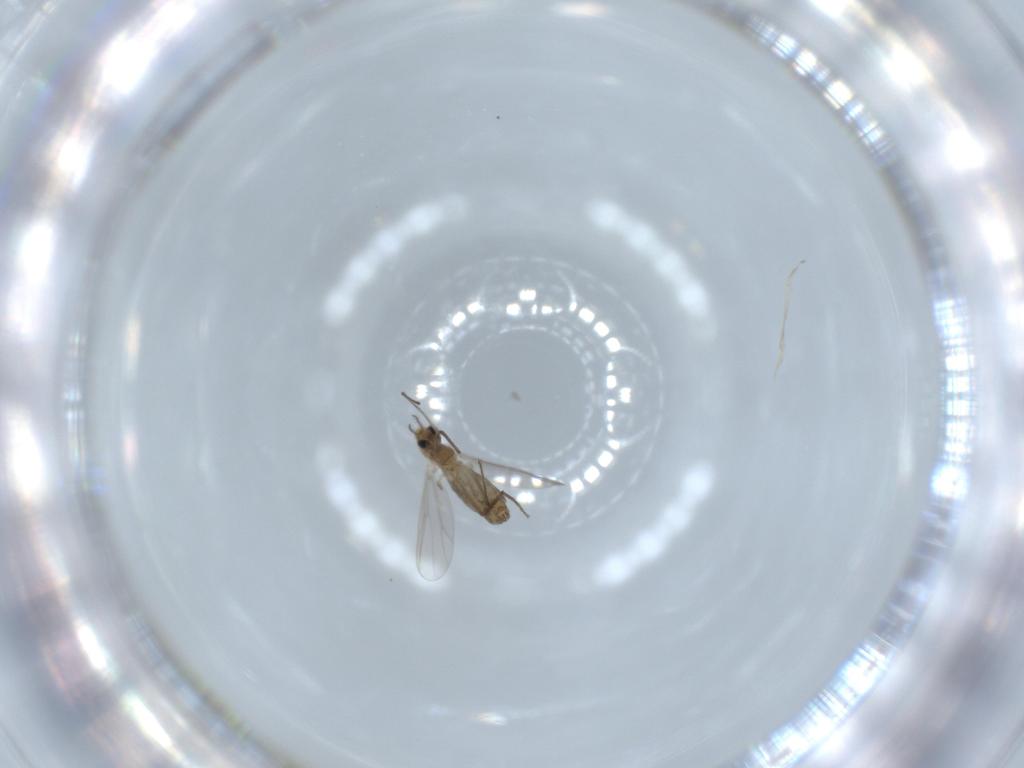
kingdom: Animalia
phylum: Arthropoda
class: Insecta
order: Diptera
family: Chironomidae
